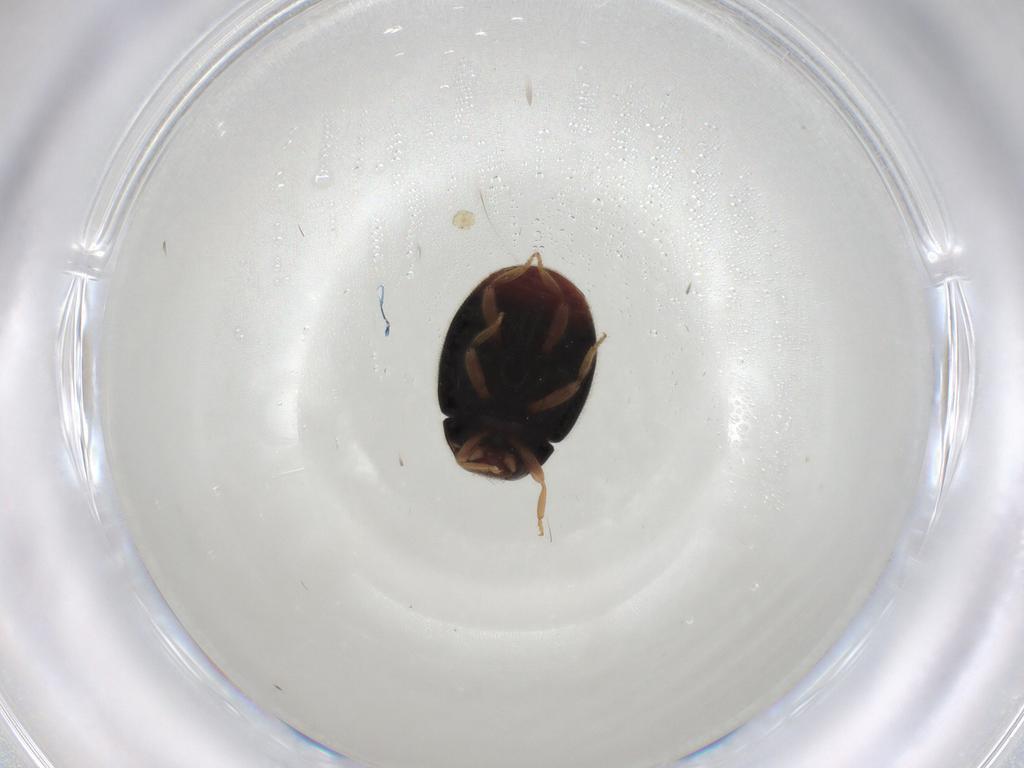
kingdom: Animalia
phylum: Arthropoda
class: Insecta
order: Coleoptera
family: Coccinellidae
